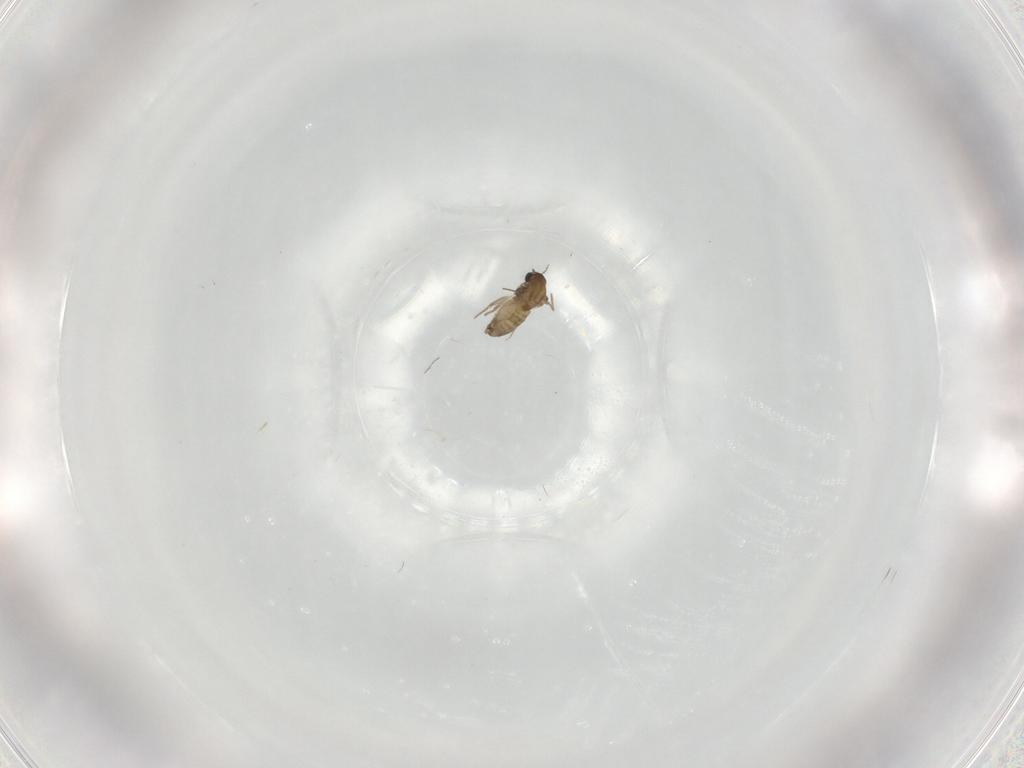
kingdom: Animalia
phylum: Arthropoda
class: Insecta
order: Diptera
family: Chironomidae
